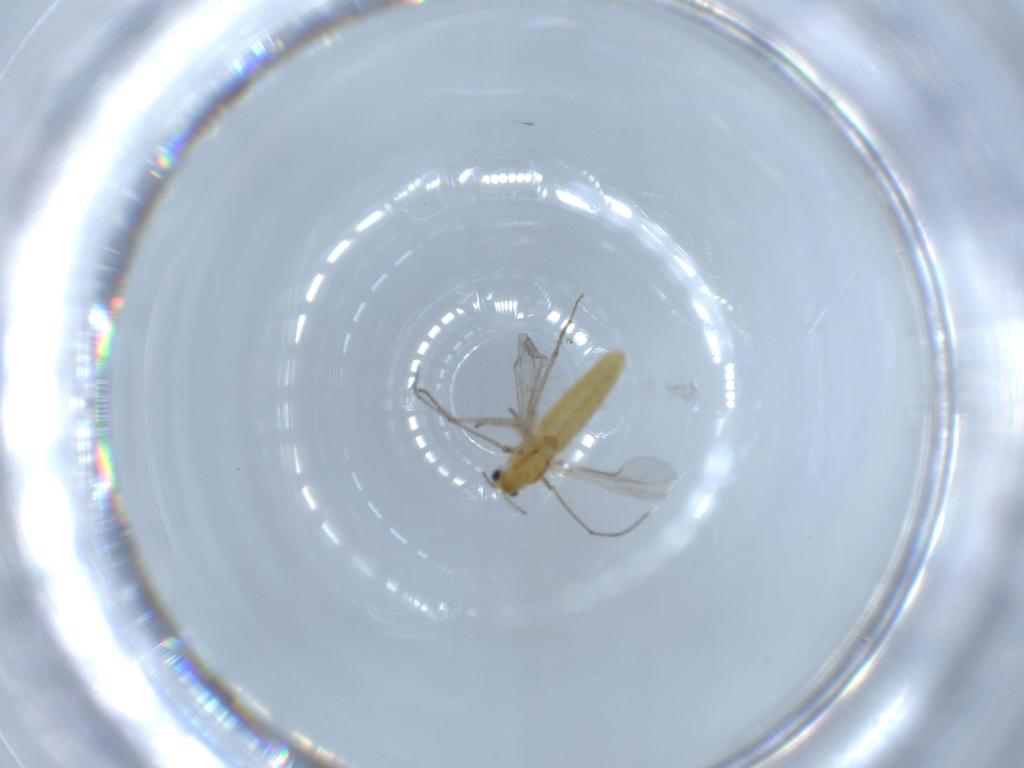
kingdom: Animalia
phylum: Arthropoda
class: Insecta
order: Diptera
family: Chironomidae
